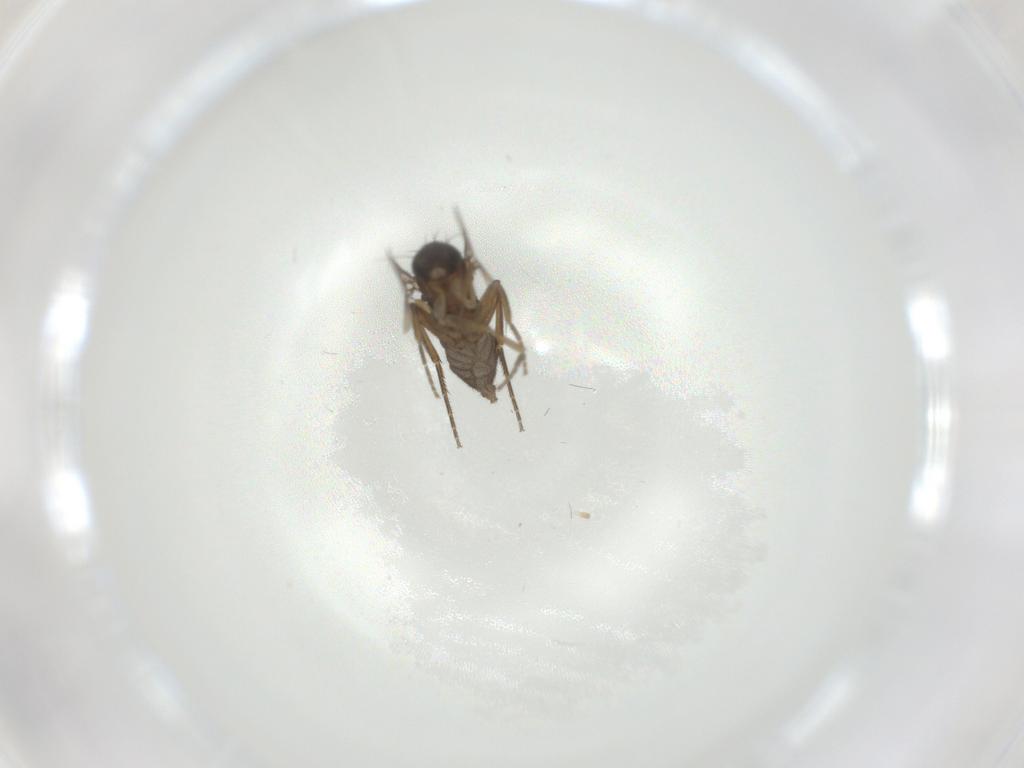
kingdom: Animalia
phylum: Arthropoda
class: Insecta
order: Diptera
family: Phoridae
